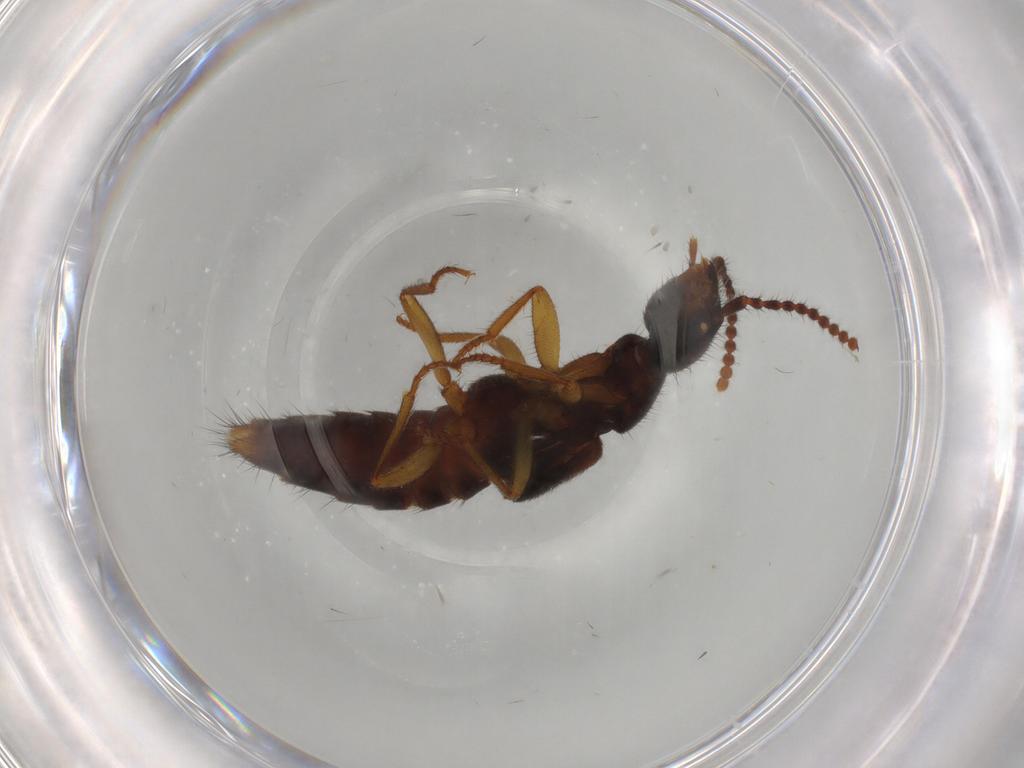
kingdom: Animalia
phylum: Arthropoda
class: Insecta
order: Coleoptera
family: Staphylinidae
